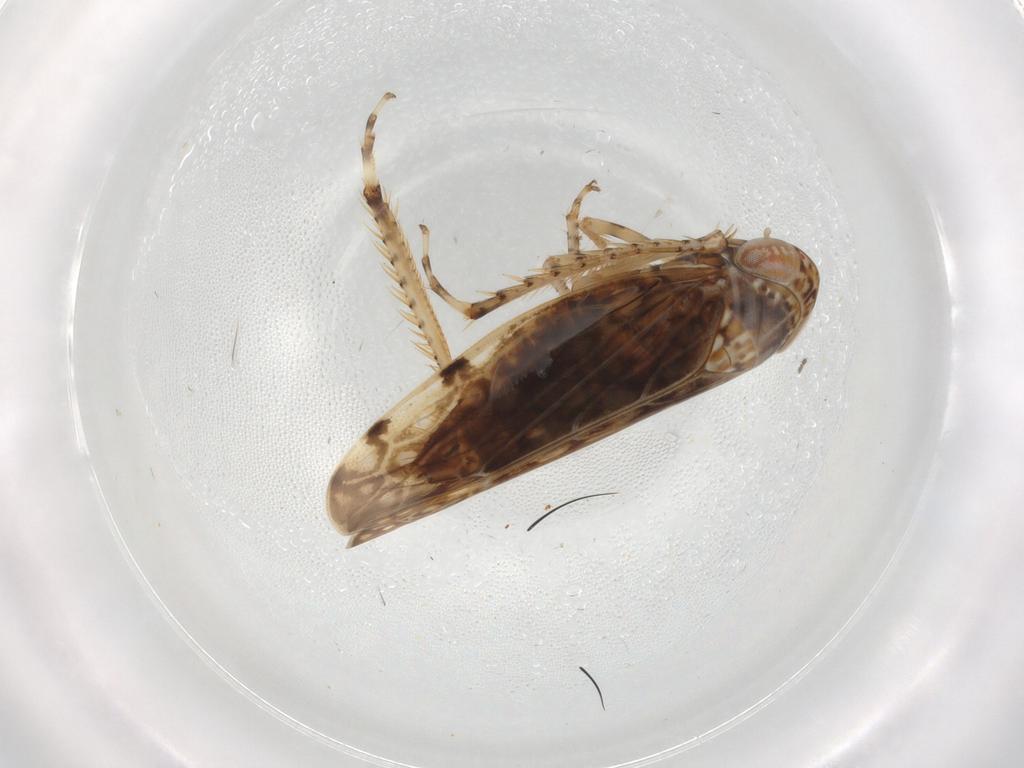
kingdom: Animalia
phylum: Arthropoda
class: Insecta
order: Hemiptera
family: Cicadellidae
